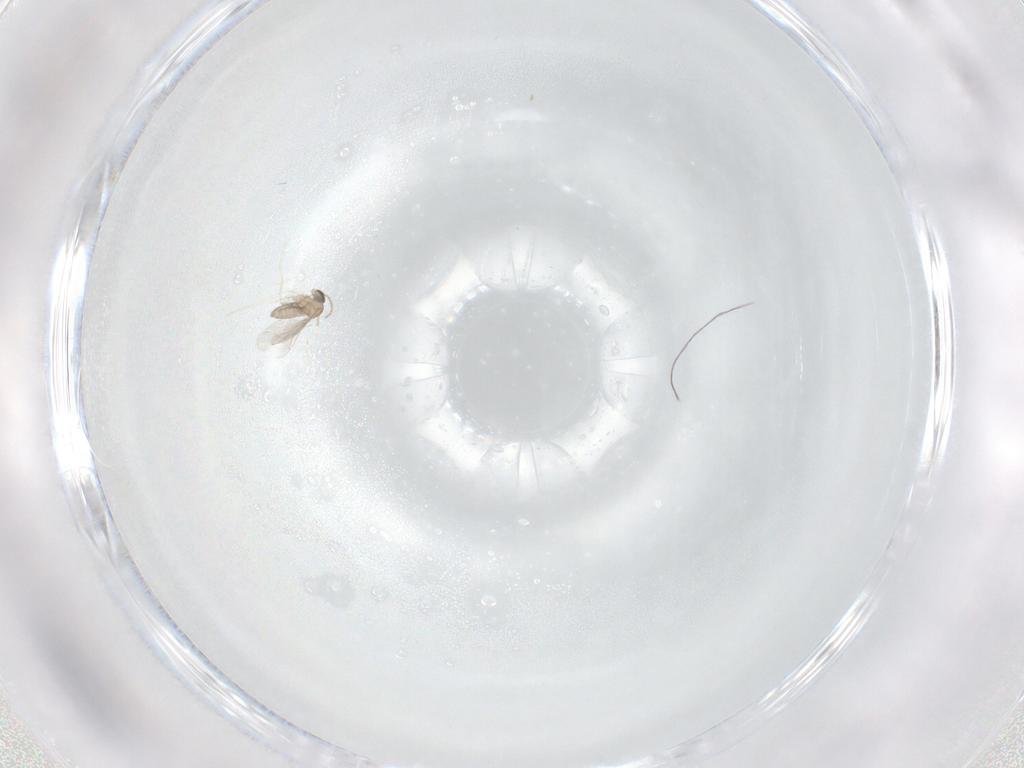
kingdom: Animalia
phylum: Arthropoda
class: Insecta
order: Diptera
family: Cecidomyiidae
